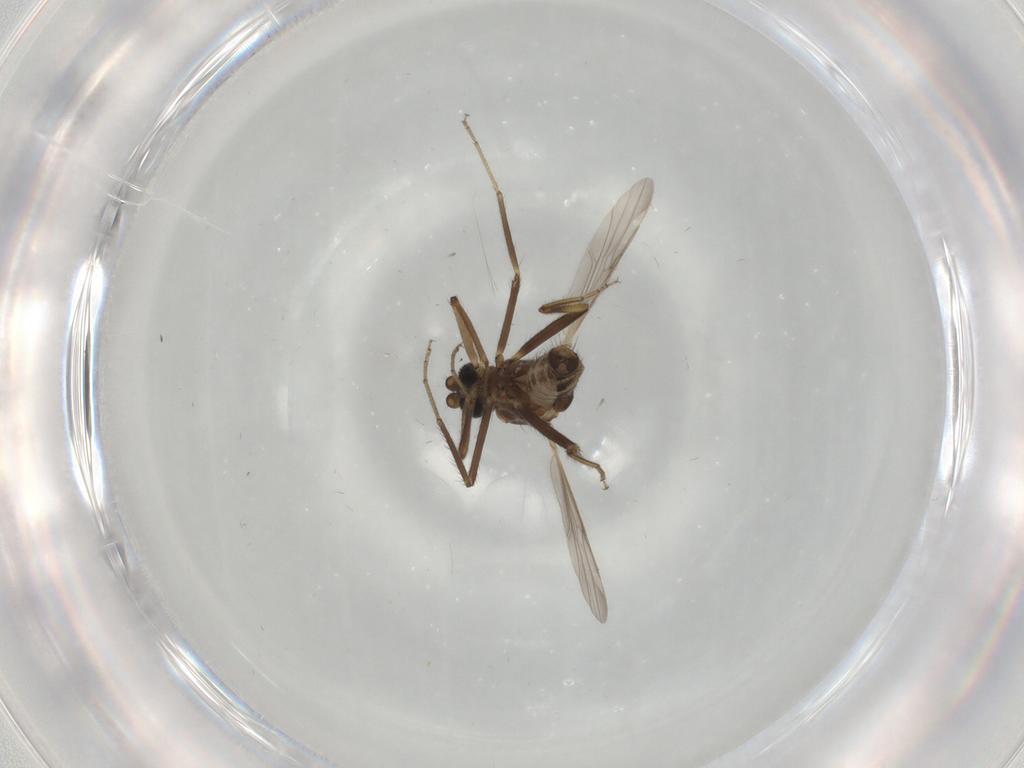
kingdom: Animalia
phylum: Arthropoda
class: Insecta
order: Diptera
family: Ceratopogonidae
